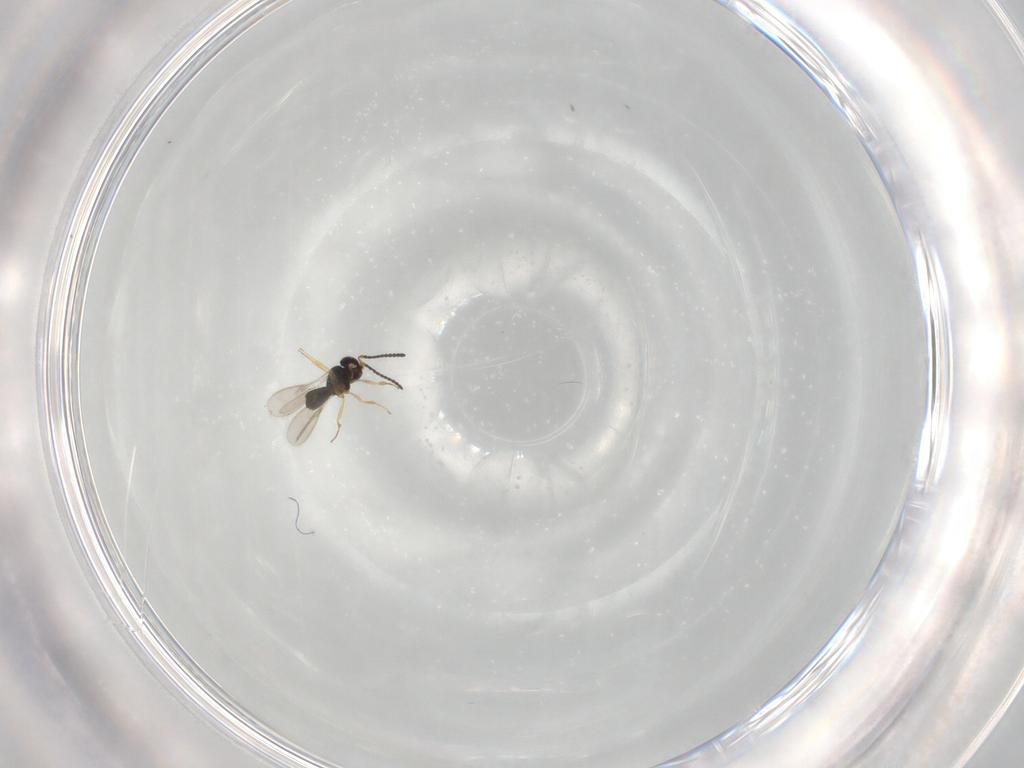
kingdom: Animalia
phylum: Arthropoda
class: Insecta
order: Hymenoptera
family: Scelionidae
